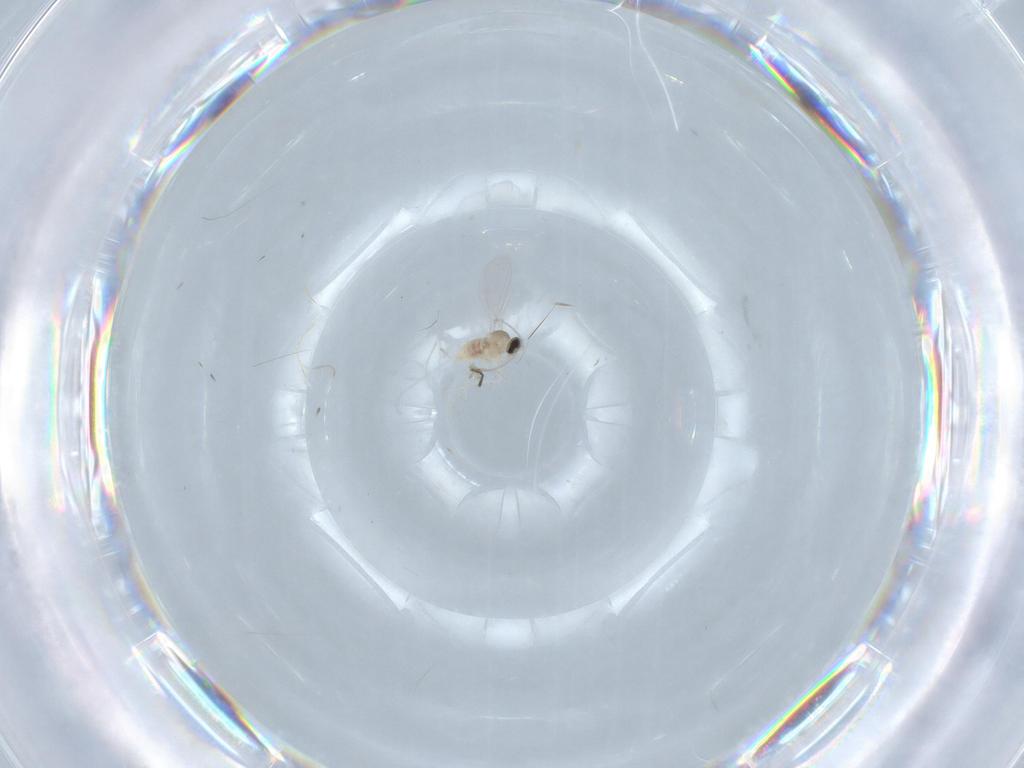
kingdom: Animalia
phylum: Arthropoda
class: Insecta
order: Diptera
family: Cecidomyiidae
